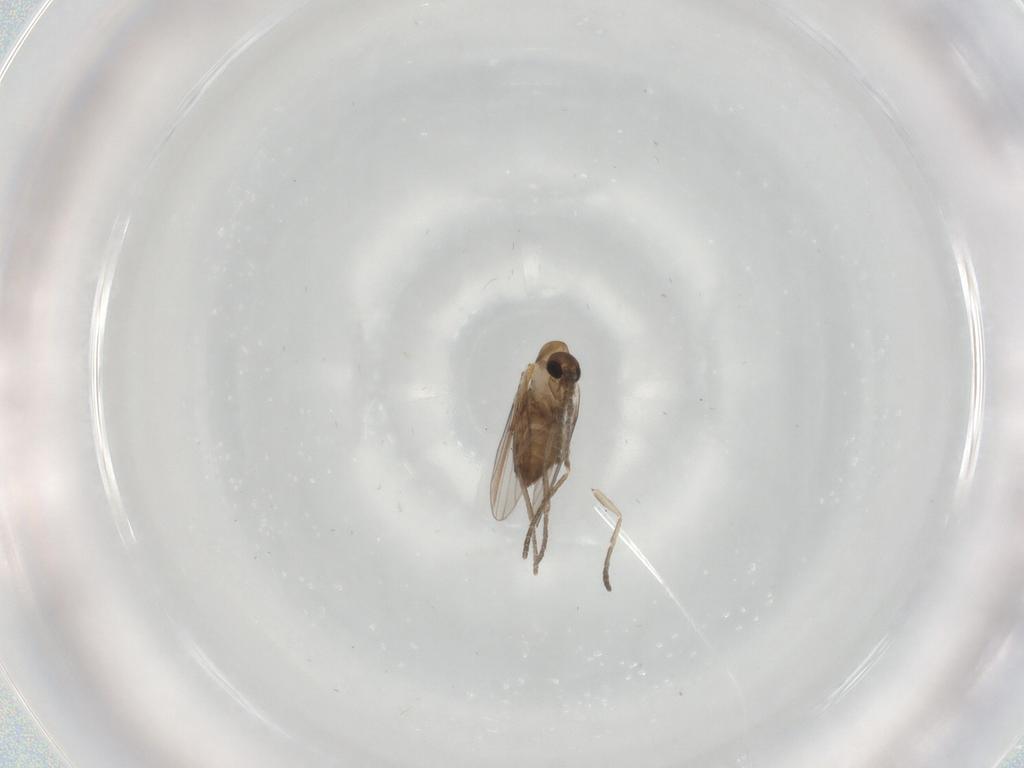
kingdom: Animalia
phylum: Arthropoda
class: Insecta
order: Diptera
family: Psychodidae
